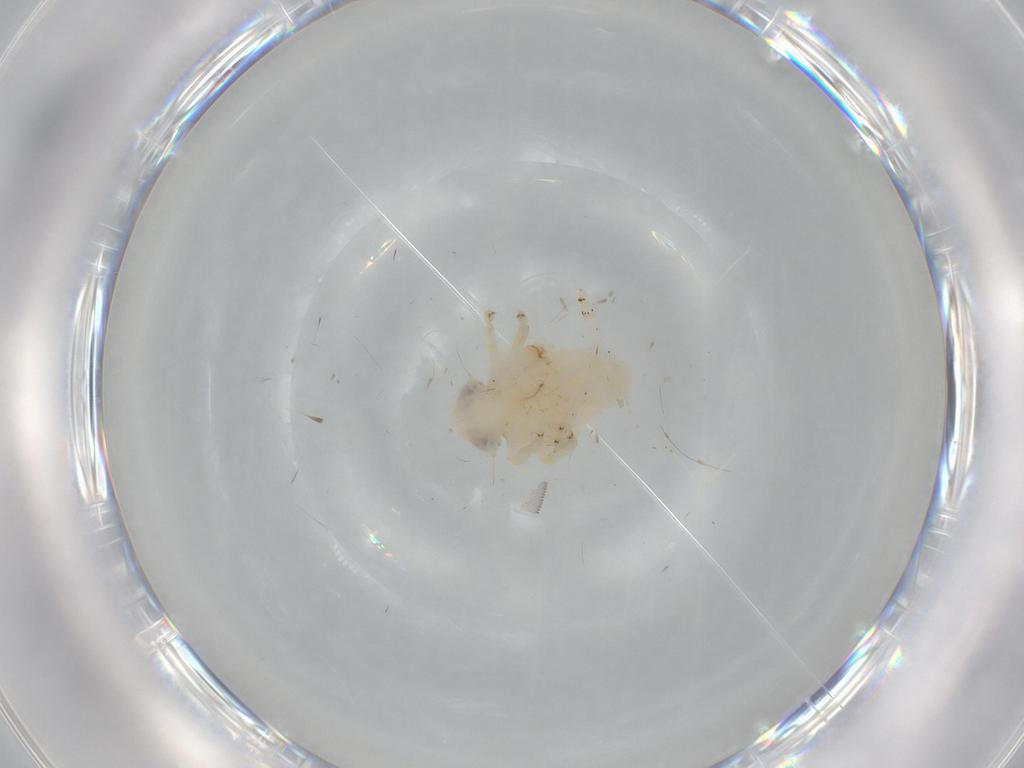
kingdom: Animalia
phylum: Arthropoda
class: Insecta
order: Hemiptera
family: Nogodinidae
